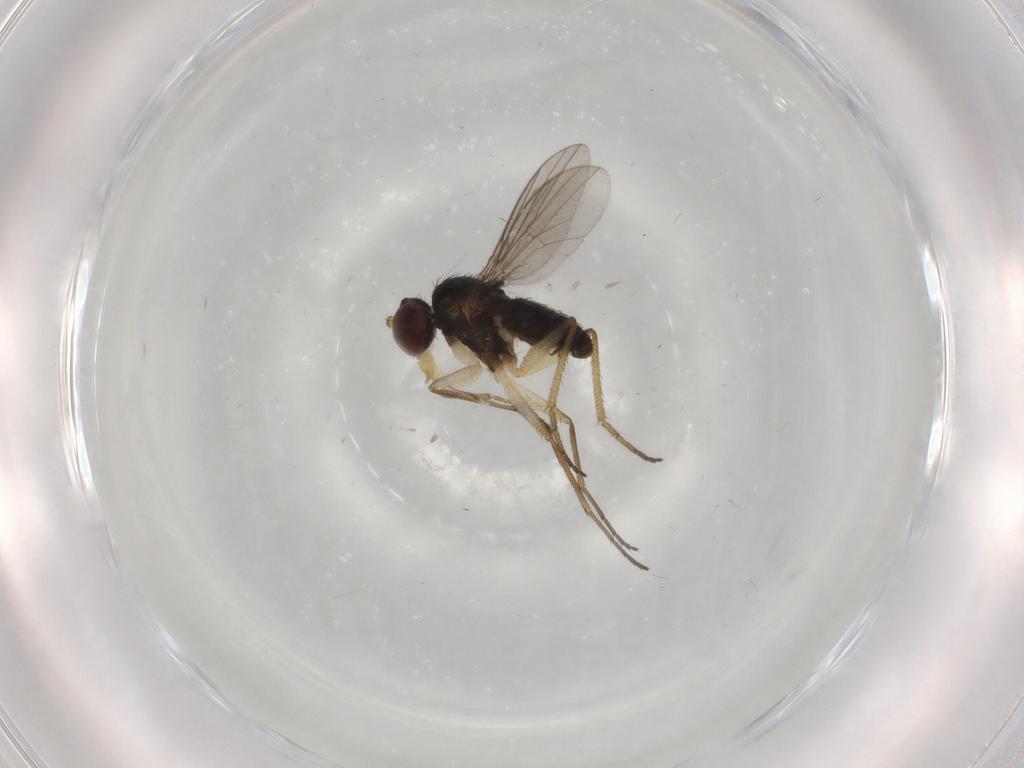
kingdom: Animalia
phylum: Arthropoda
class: Insecta
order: Diptera
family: Dolichopodidae
